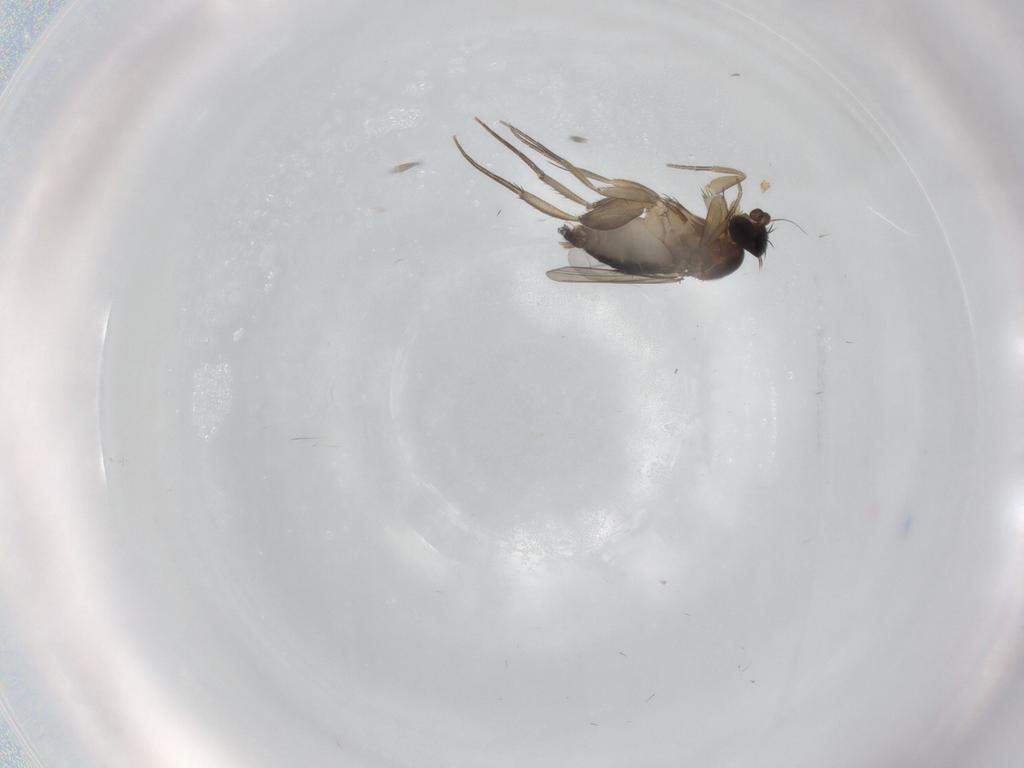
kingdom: Animalia
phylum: Arthropoda
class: Insecta
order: Diptera
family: Phoridae
